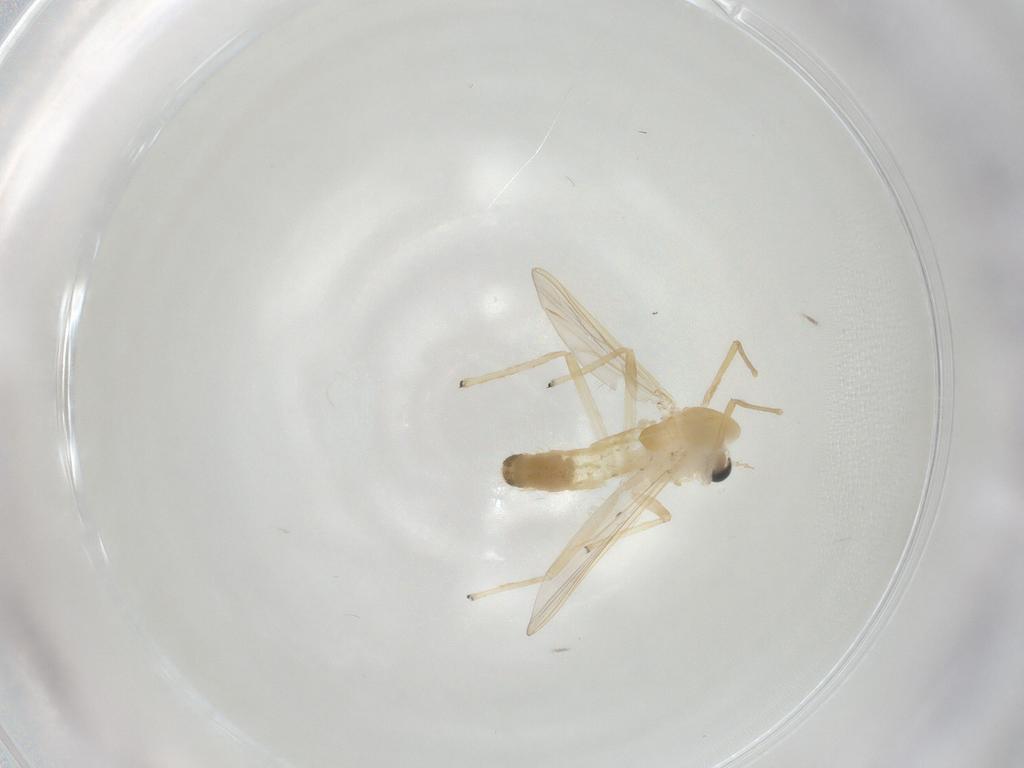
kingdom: Animalia
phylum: Arthropoda
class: Insecta
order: Diptera
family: Chironomidae
